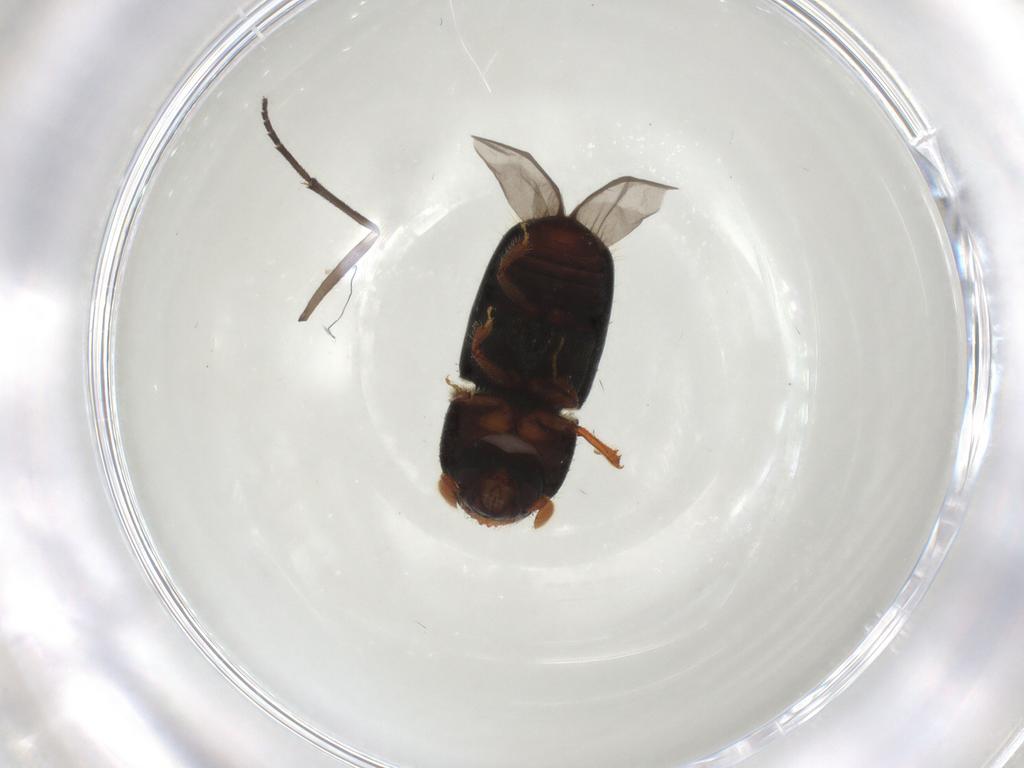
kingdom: Animalia
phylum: Arthropoda
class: Insecta
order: Coleoptera
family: Curculionidae
